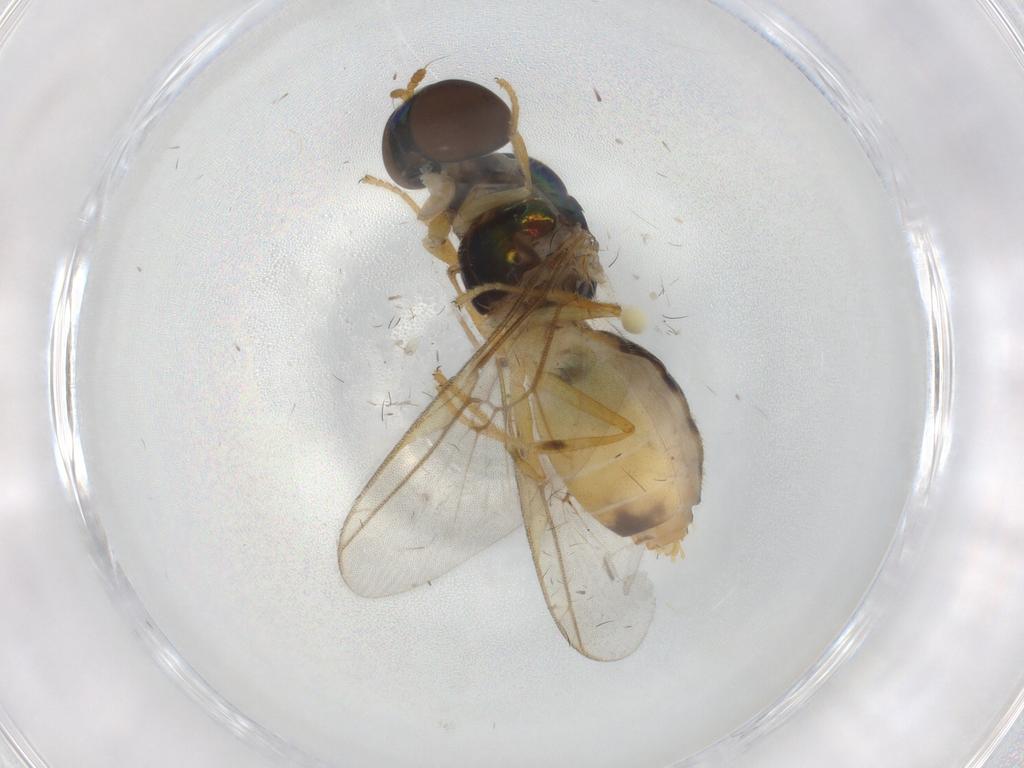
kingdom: Animalia
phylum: Arthropoda
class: Insecta
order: Diptera
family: Phoridae
